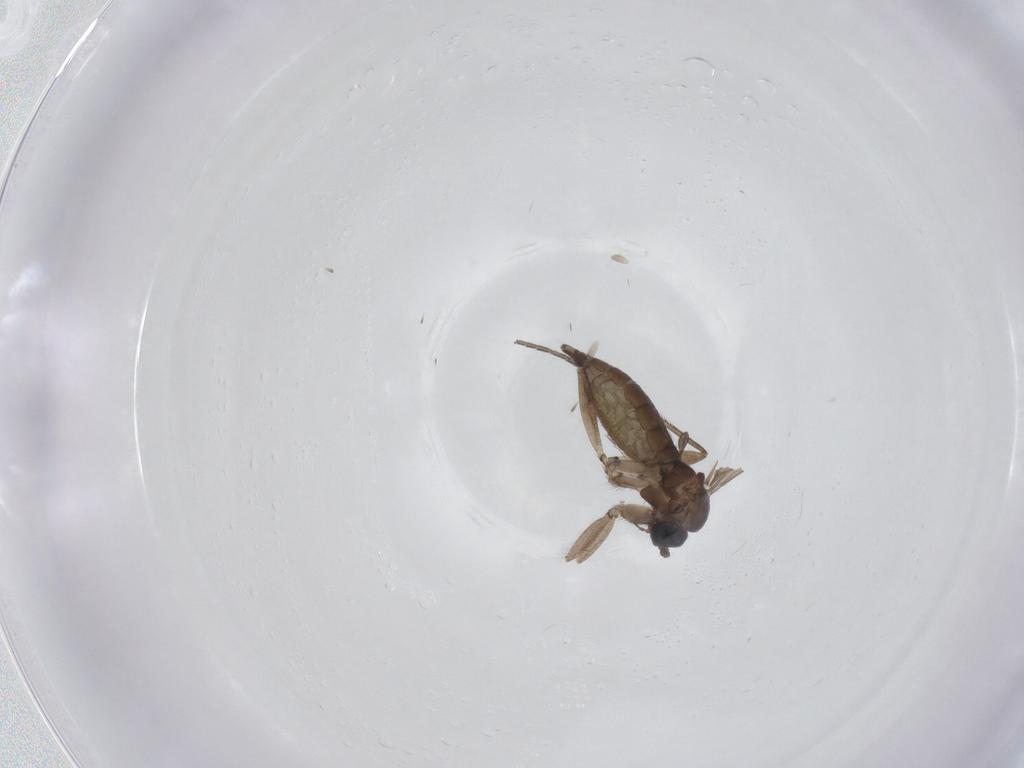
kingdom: Animalia
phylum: Arthropoda
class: Insecta
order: Diptera
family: Sciaridae
